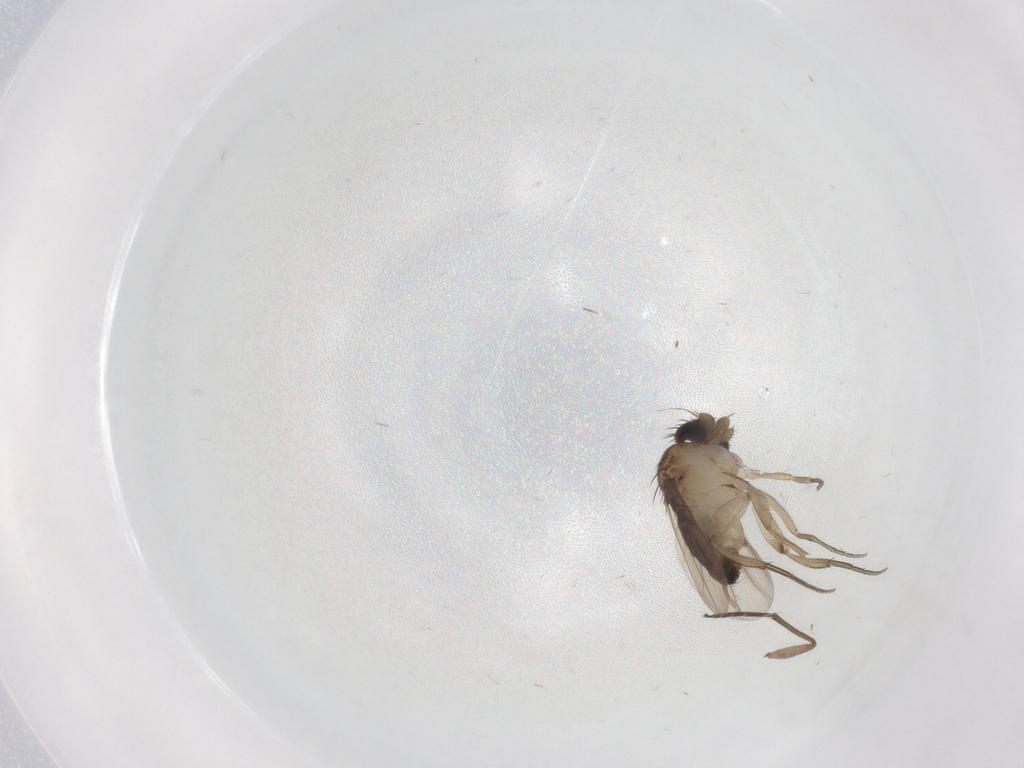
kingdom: Animalia
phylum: Arthropoda
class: Insecta
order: Diptera
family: Phoridae
